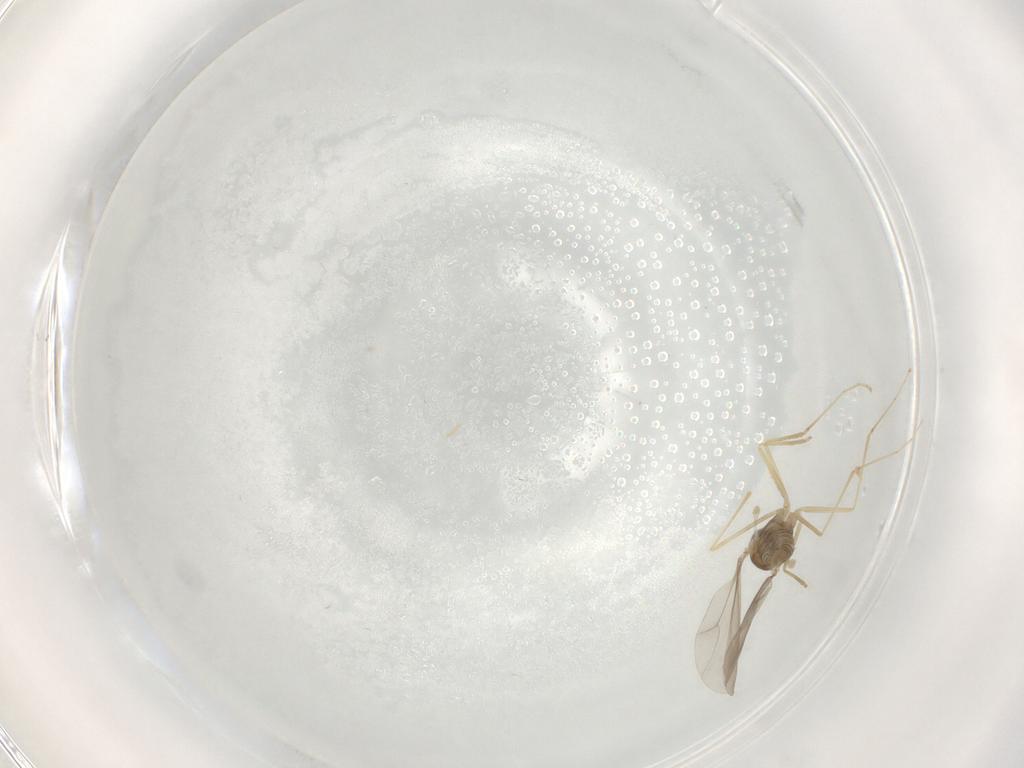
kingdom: Animalia
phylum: Arthropoda
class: Insecta
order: Diptera
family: Cecidomyiidae
